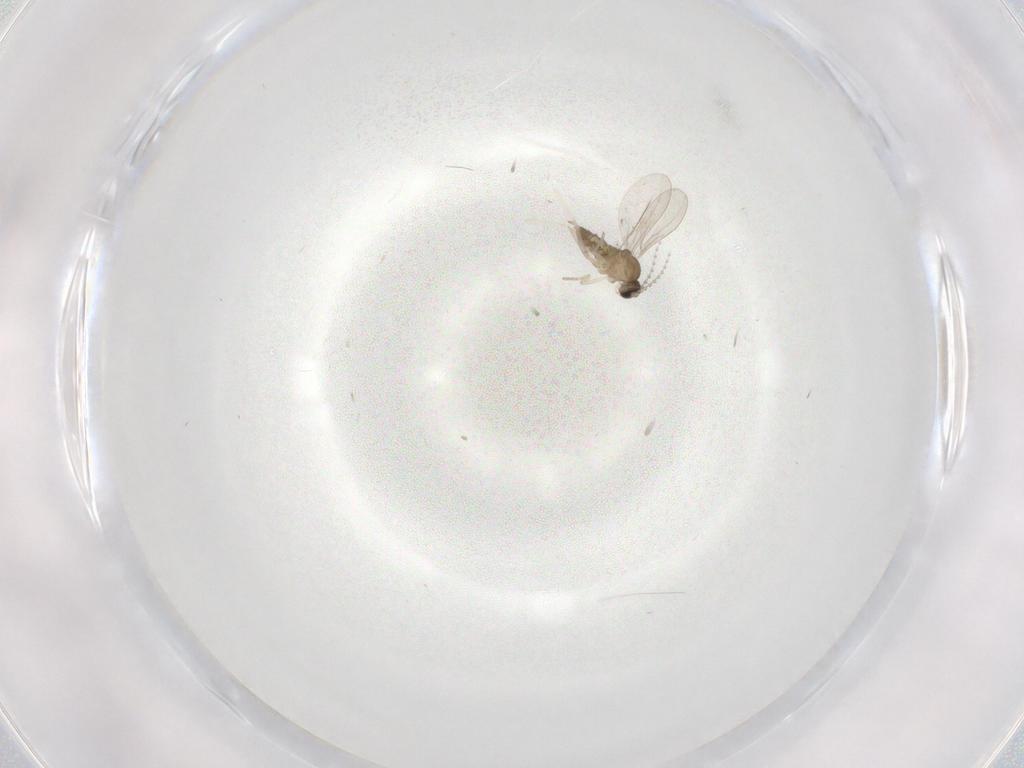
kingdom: Animalia
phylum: Arthropoda
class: Insecta
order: Diptera
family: Cecidomyiidae
